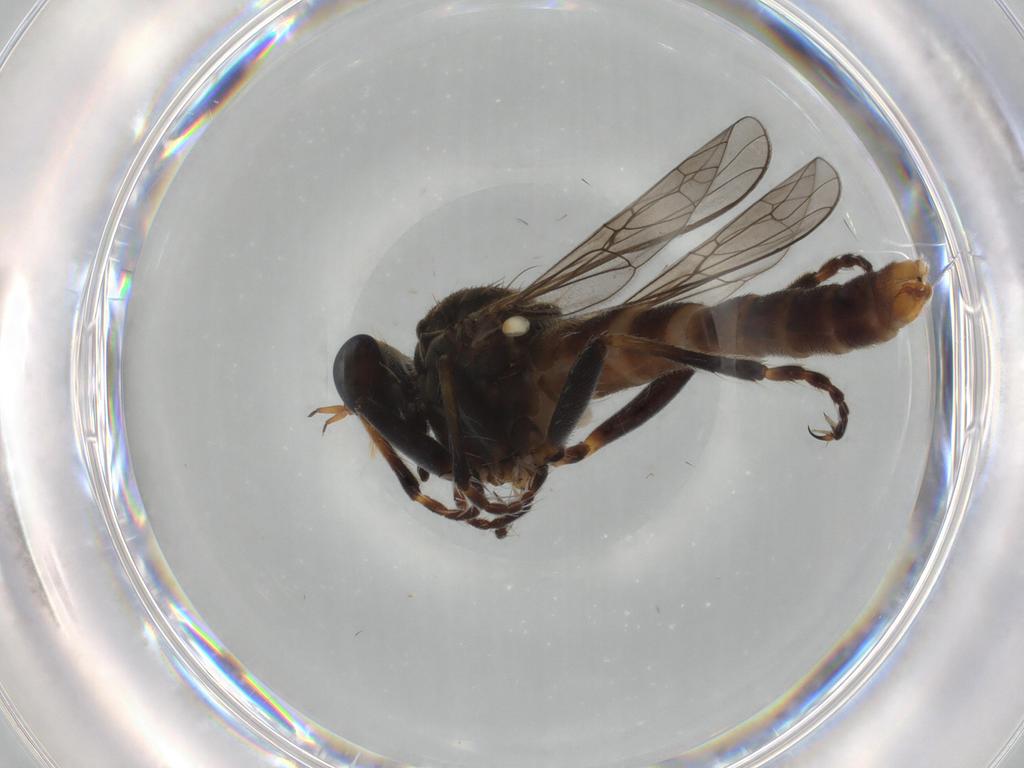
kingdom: Animalia
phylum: Arthropoda
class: Insecta
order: Diptera
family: Asilidae
